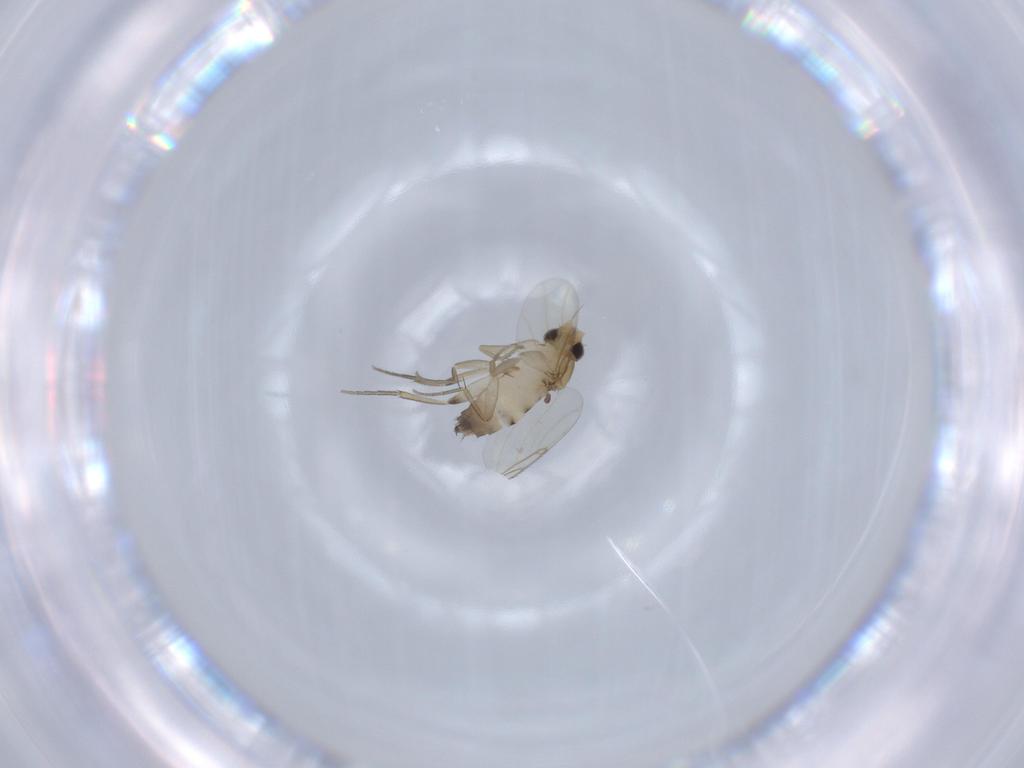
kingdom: Animalia
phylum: Arthropoda
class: Insecta
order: Diptera
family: Phoridae
